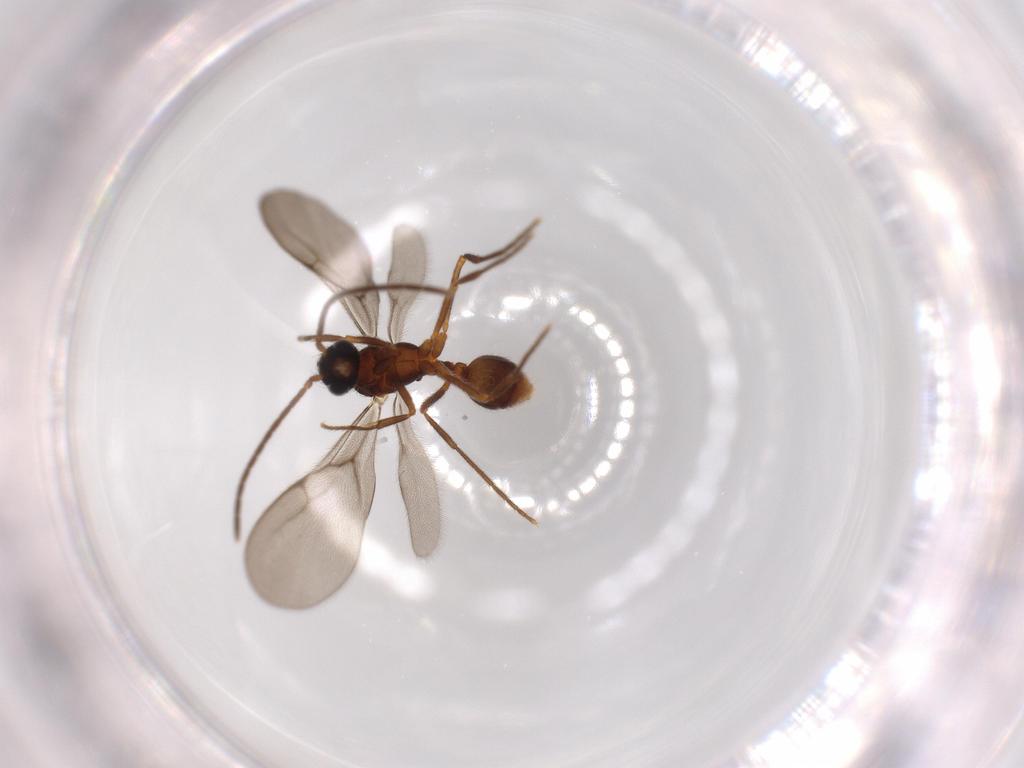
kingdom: Animalia
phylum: Arthropoda
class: Insecta
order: Hymenoptera
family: Formicidae
